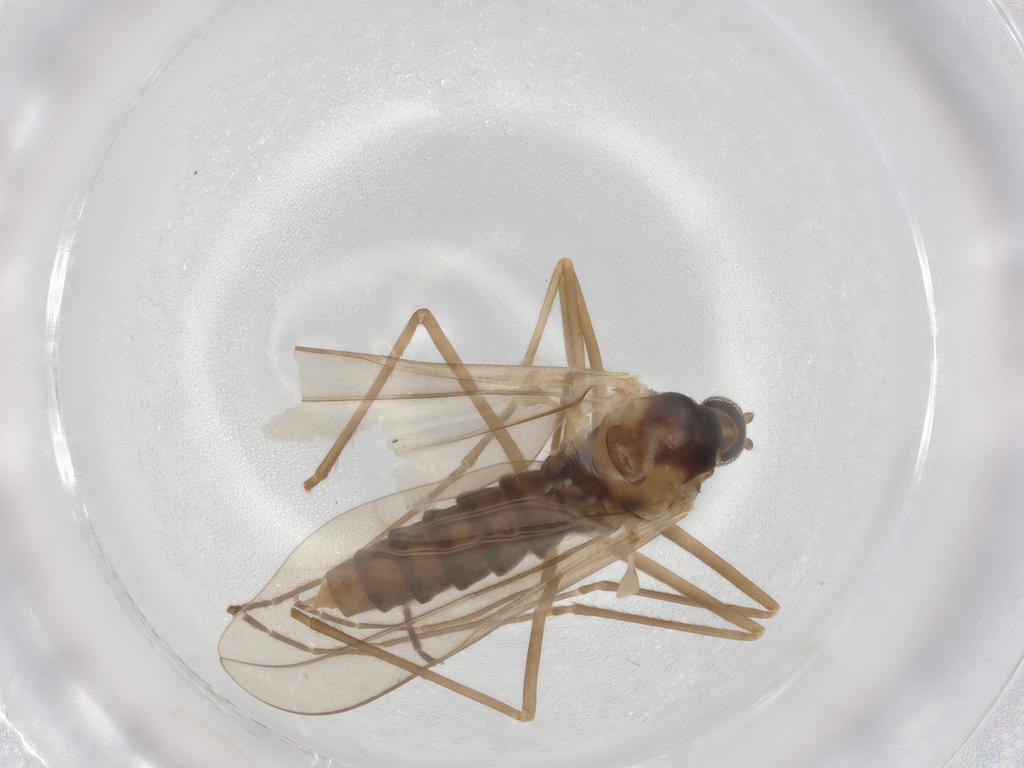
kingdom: Animalia
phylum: Arthropoda
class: Insecta
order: Diptera
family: Cecidomyiidae
